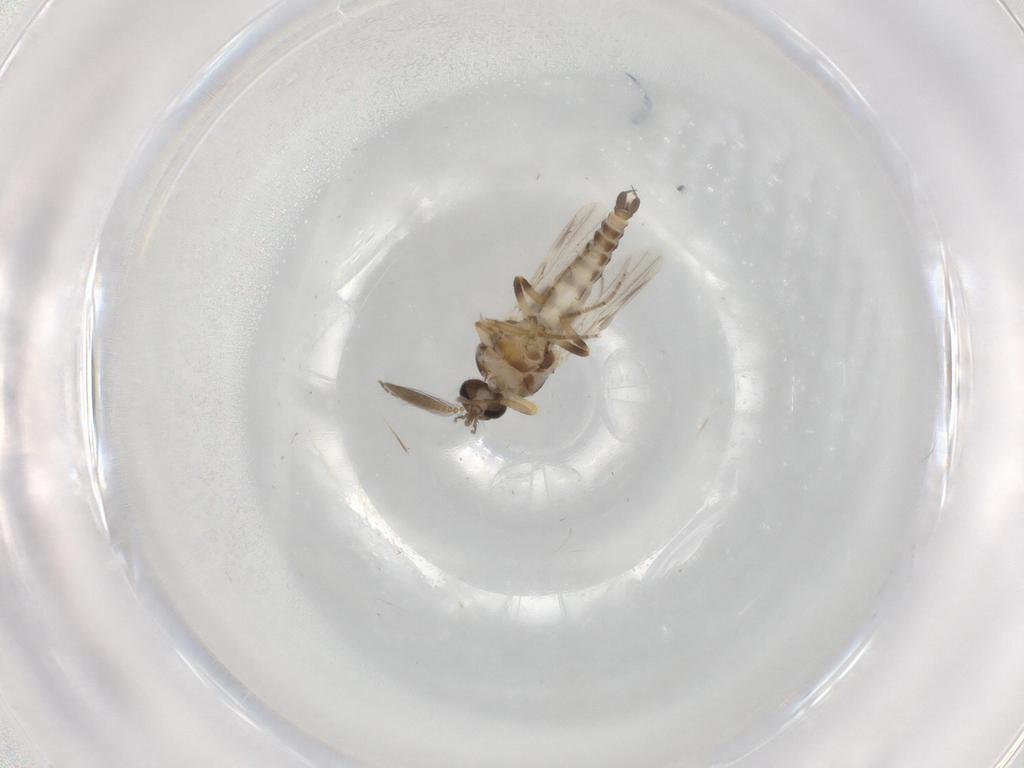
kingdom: Animalia
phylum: Arthropoda
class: Insecta
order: Diptera
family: Ceratopogonidae
